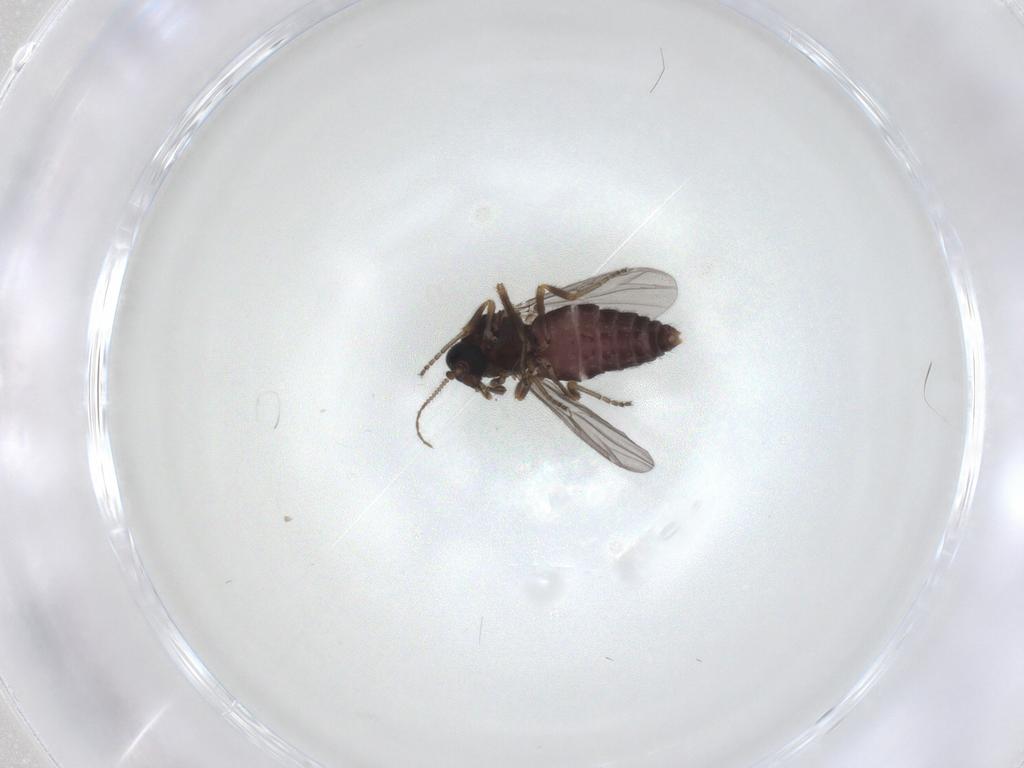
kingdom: Animalia
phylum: Arthropoda
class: Insecta
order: Diptera
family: Ceratopogonidae
